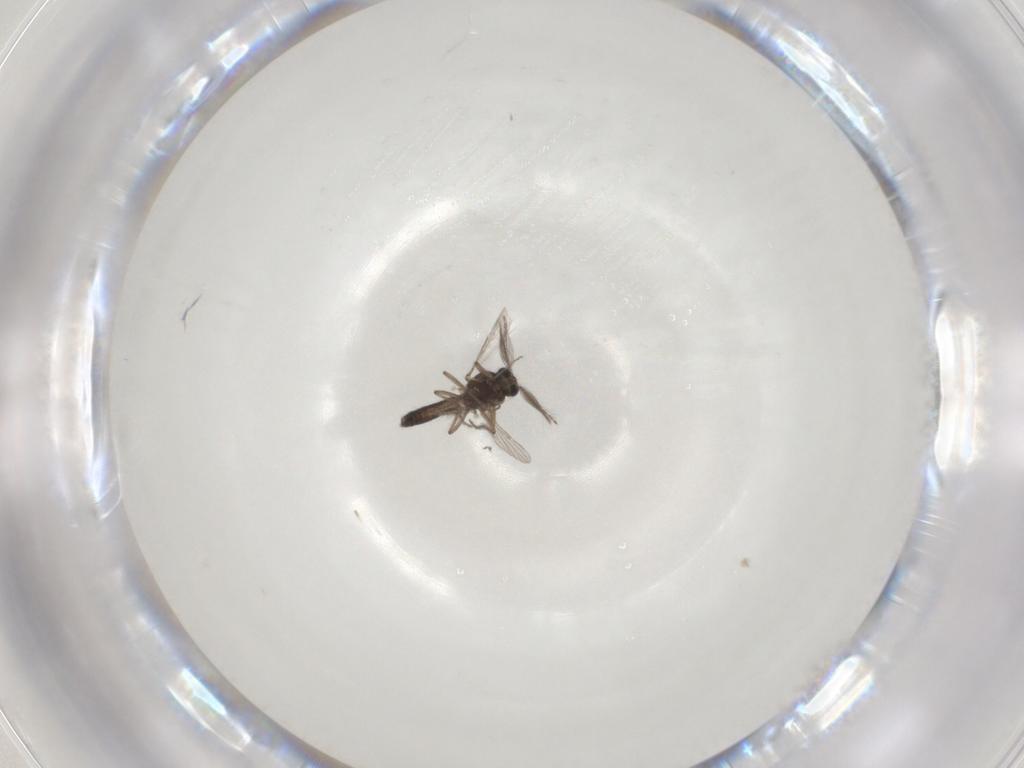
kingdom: Animalia
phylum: Arthropoda
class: Insecta
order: Diptera
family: Ceratopogonidae
